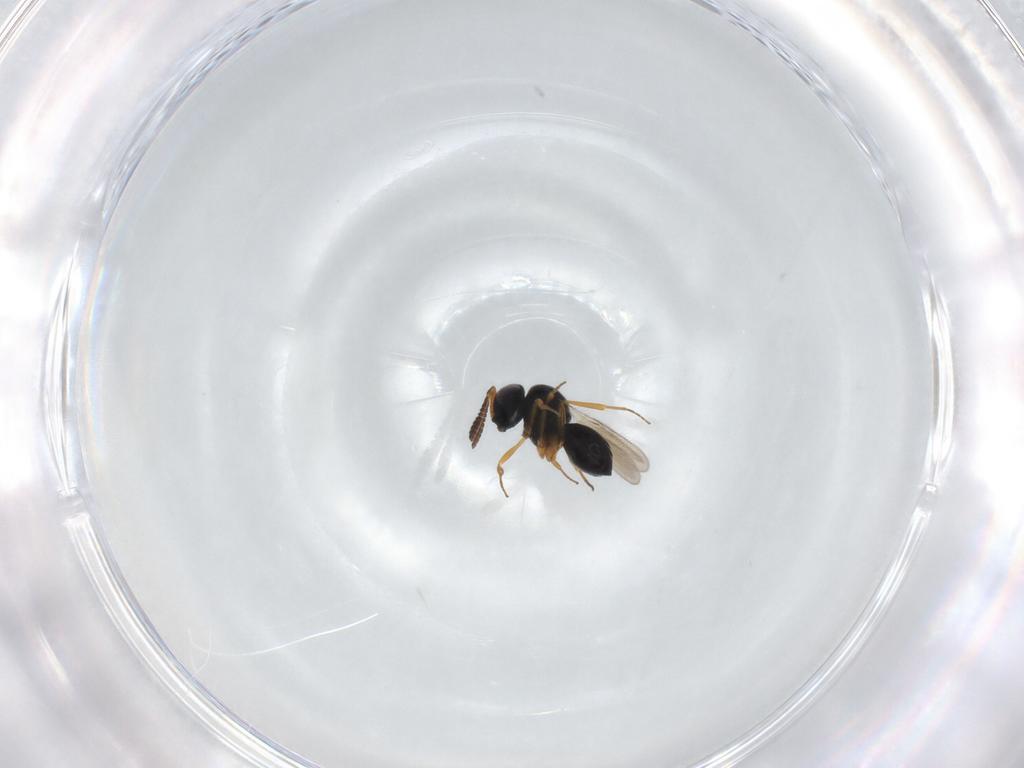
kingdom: Animalia
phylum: Arthropoda
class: Insecta
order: Hymenoptera
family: Scelionidae
